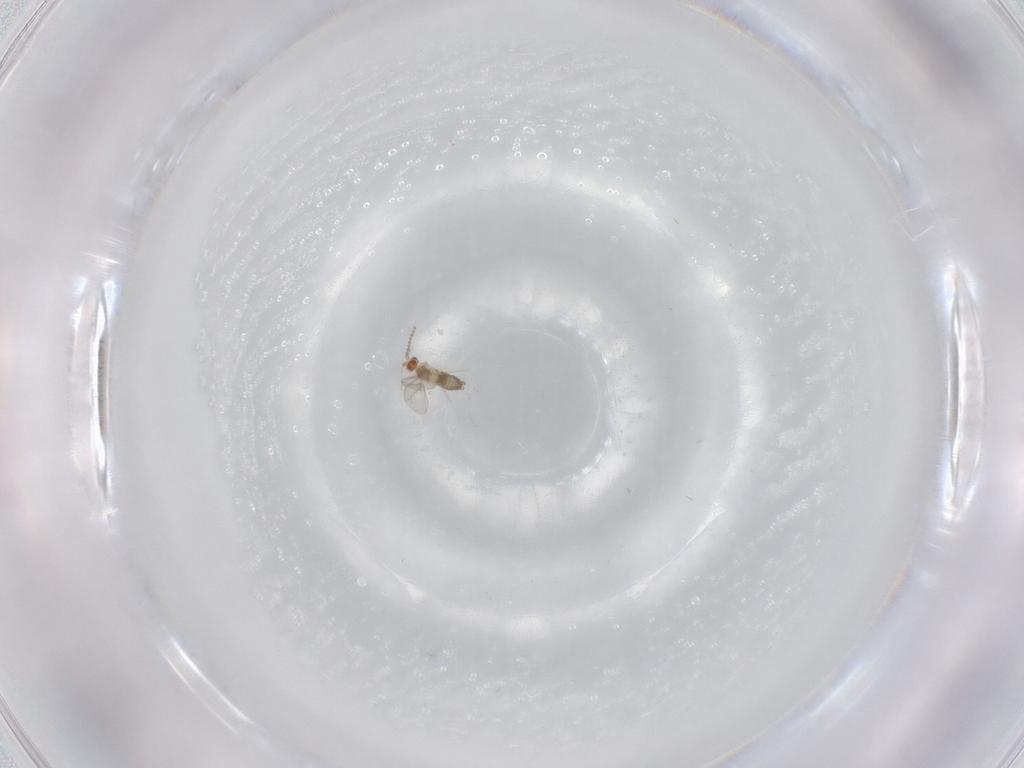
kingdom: Animalia
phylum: Arthropoda
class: Insecta
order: Diptera
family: Cecidomyiidae
